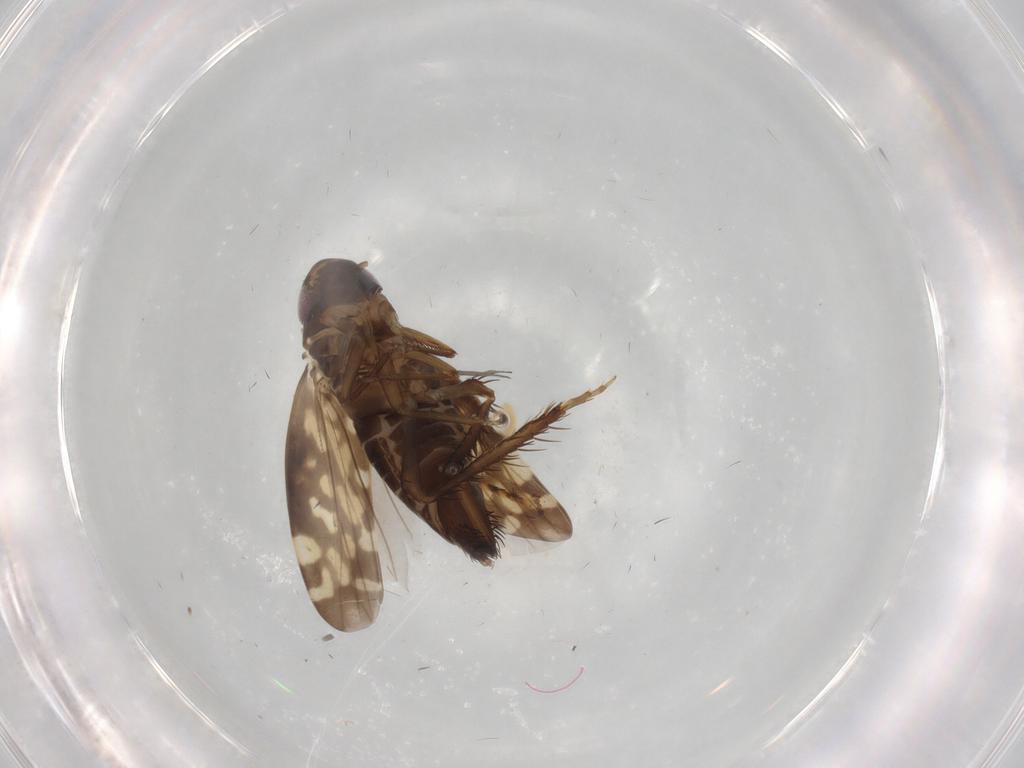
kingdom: Animalia
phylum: Arthropoda
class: Insecta
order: Hemiptera
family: Cicadellidae
